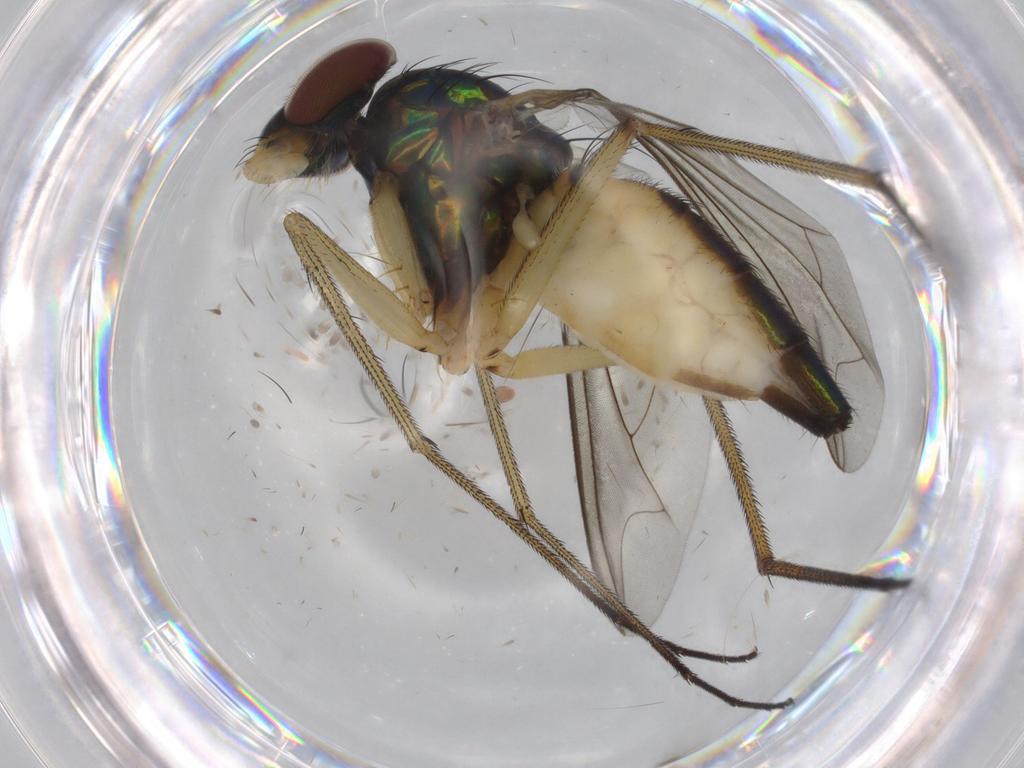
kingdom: Animalia
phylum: Arthropoda
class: Insecta
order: Diptera
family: Dolichopodidae
